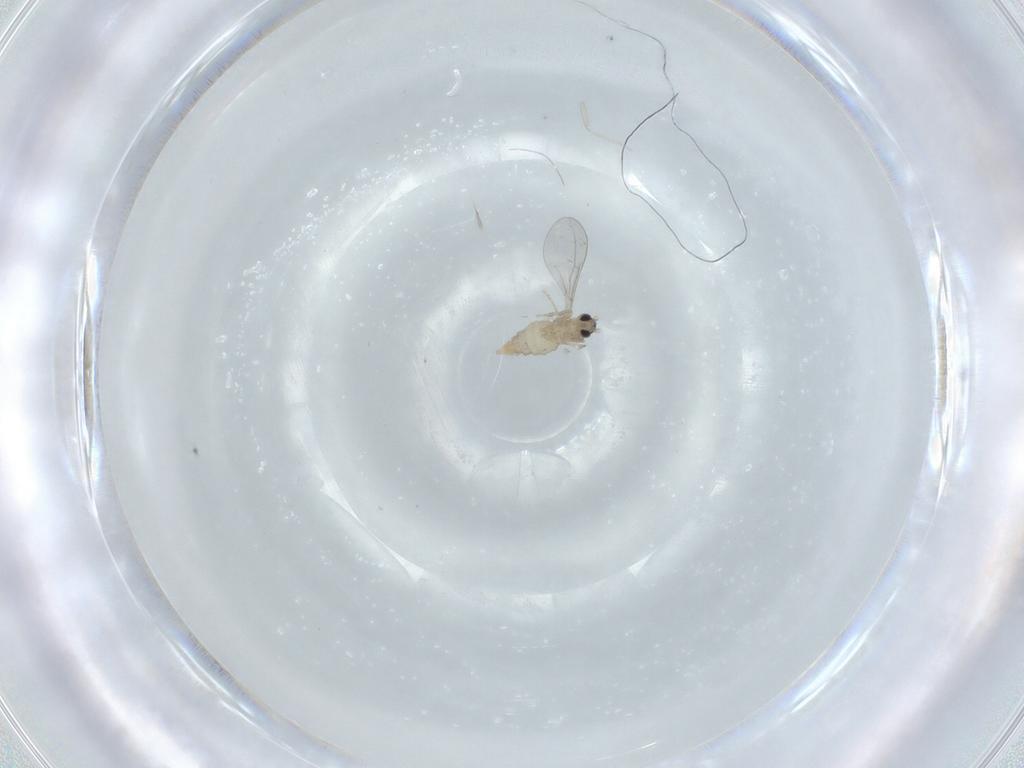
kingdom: Animalia
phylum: Arthropoda
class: Insecta
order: Diptera
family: Cecidomyiidae
